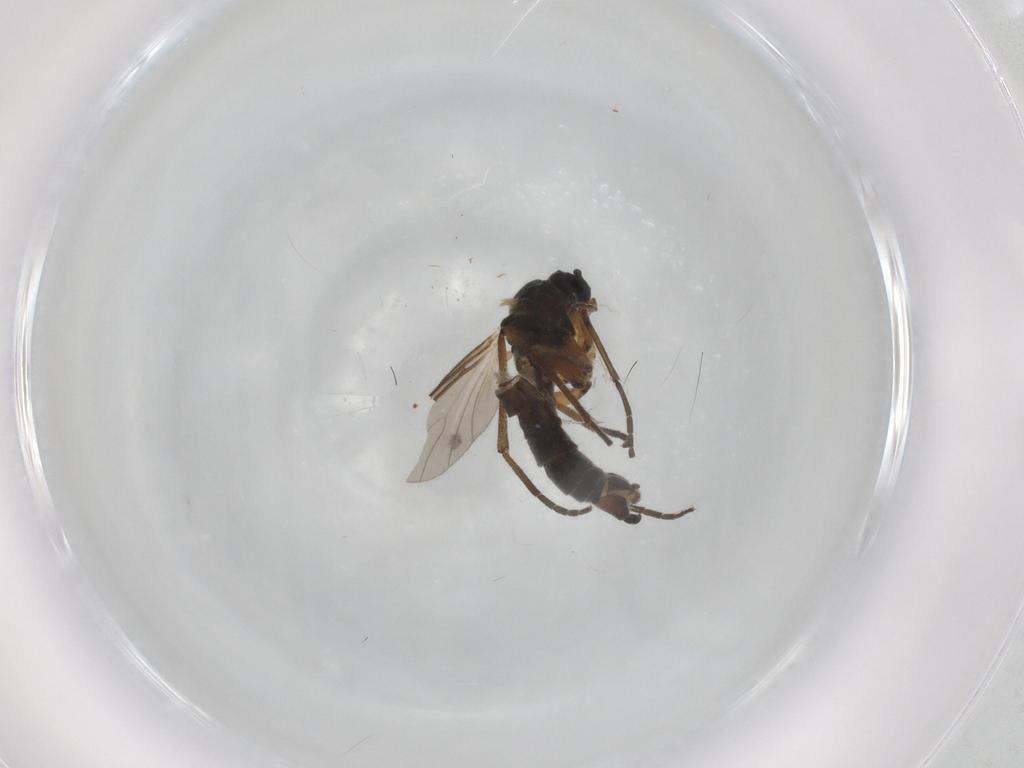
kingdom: Animalia
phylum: Arthropoda
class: Insecta
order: Diptera
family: Sciaridae
